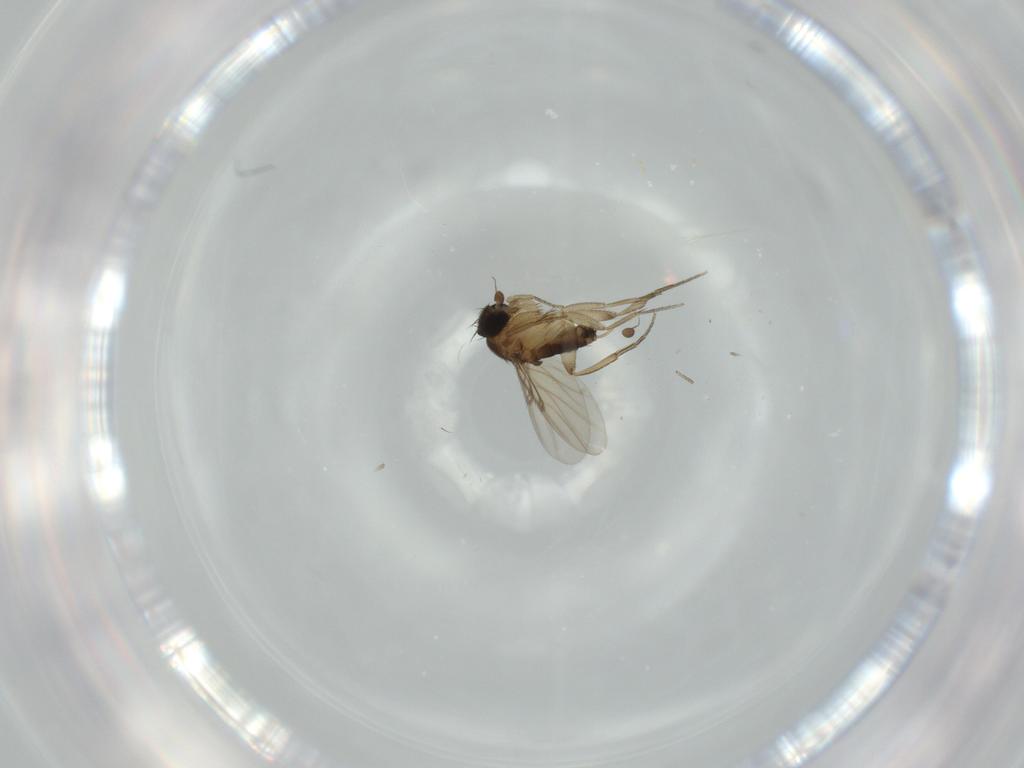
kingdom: Animalia
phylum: Arthropoda
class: Insecta
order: Diptera
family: Phoridae
